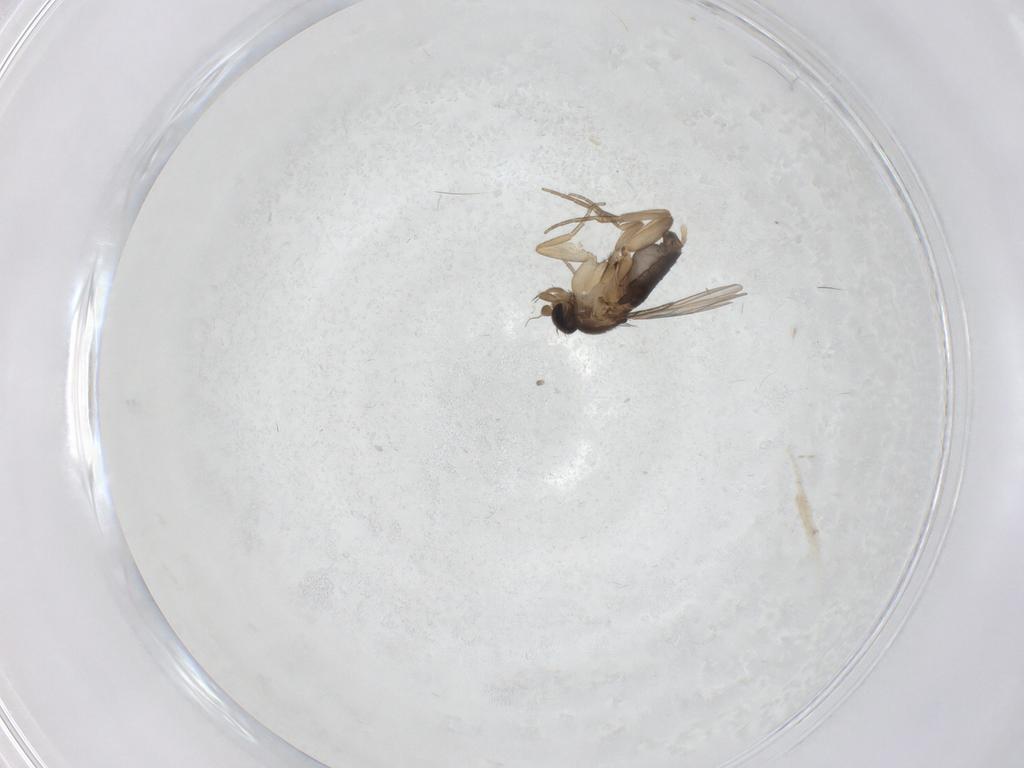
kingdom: Animalia
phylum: Arthropoda
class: Insecta
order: Diptera
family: Phoridae
